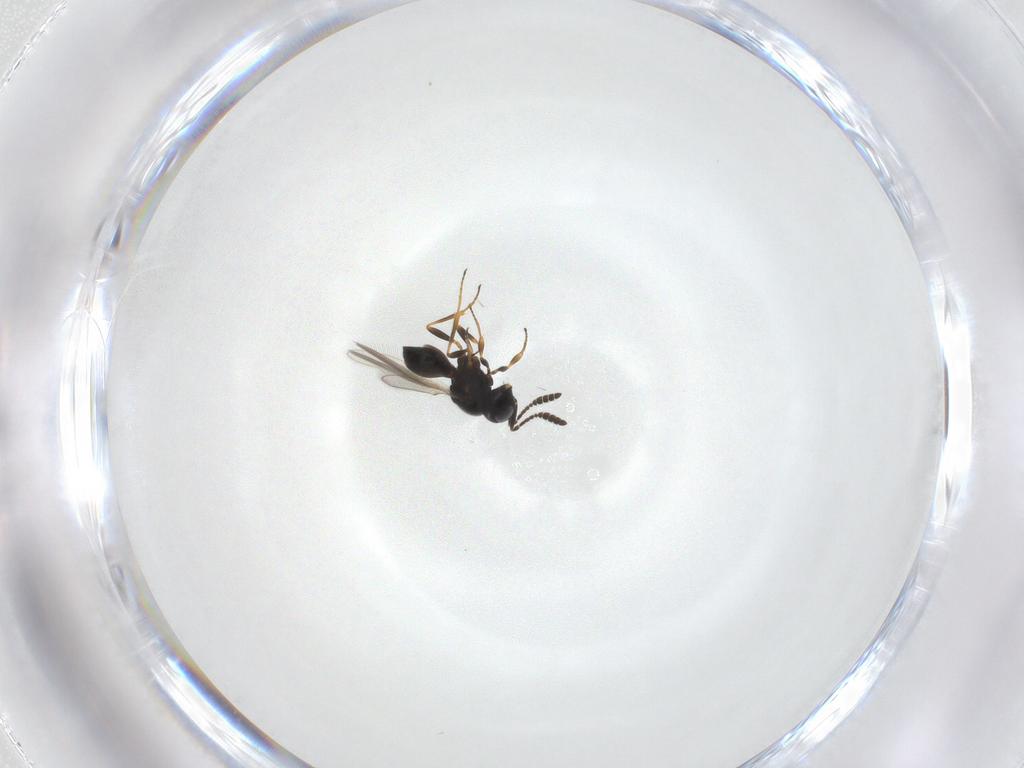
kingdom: Animalia
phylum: Arthropoda
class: Insecta
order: Hymenoptera
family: Scelionidae
